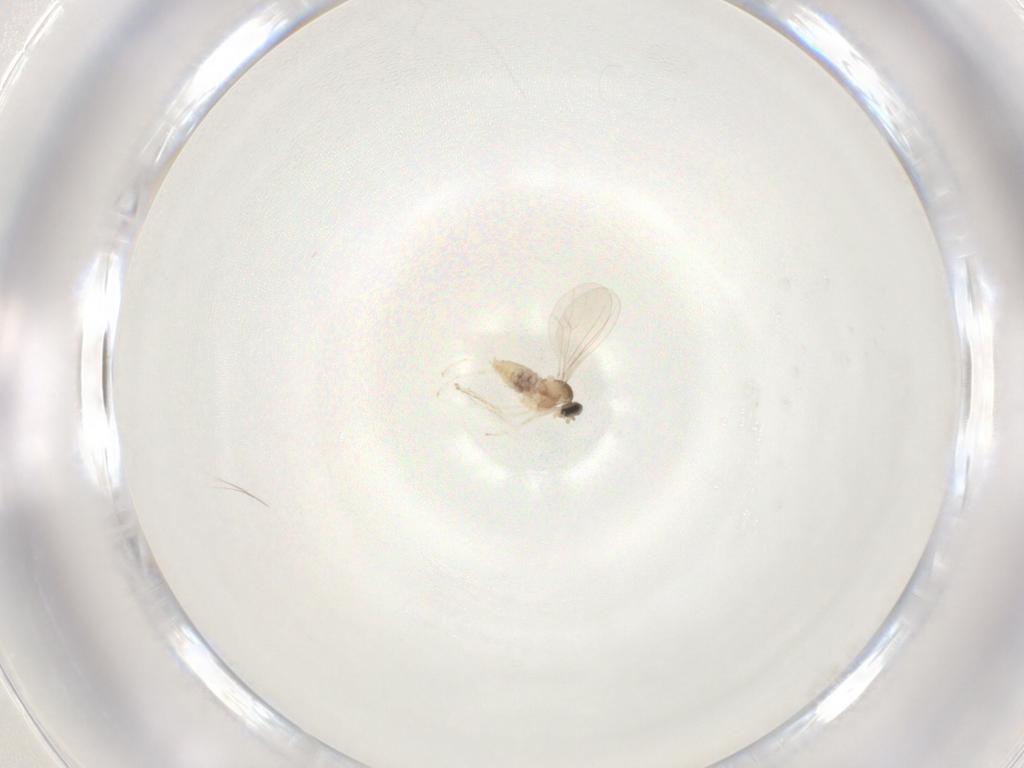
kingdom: Animalia
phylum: Arthropoda
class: Insecta
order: Diptera
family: Cecidomyiidae
